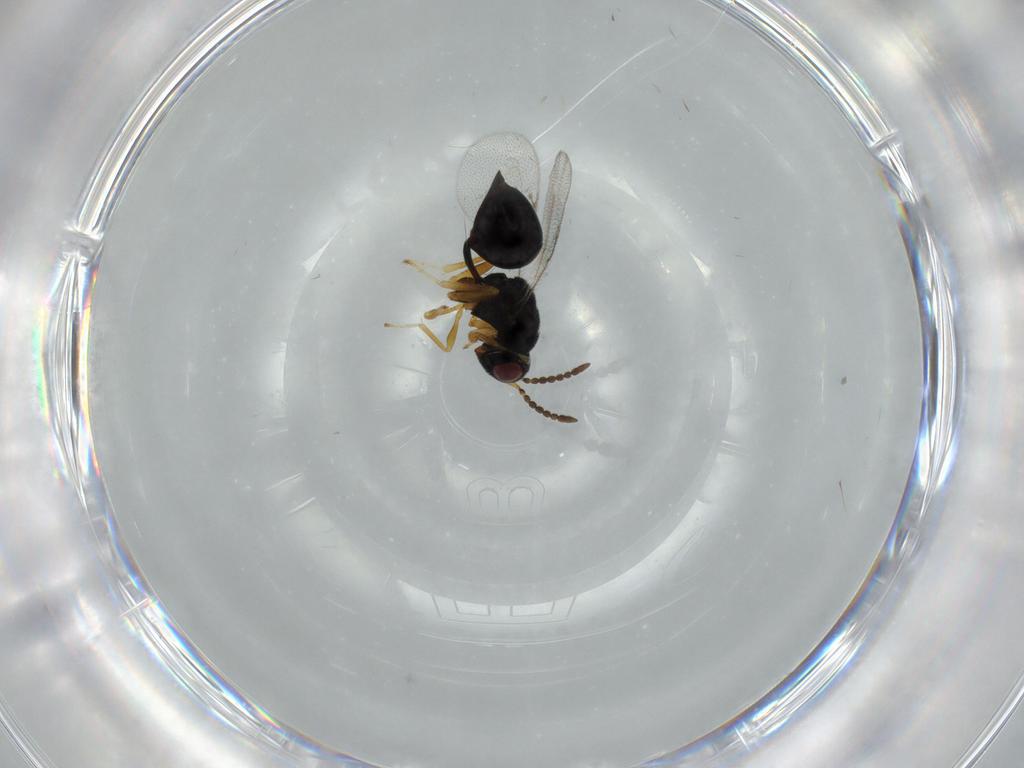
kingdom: Animalia
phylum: Arthropoda
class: Insecta
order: Hymenoptera
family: Eurytomidae
